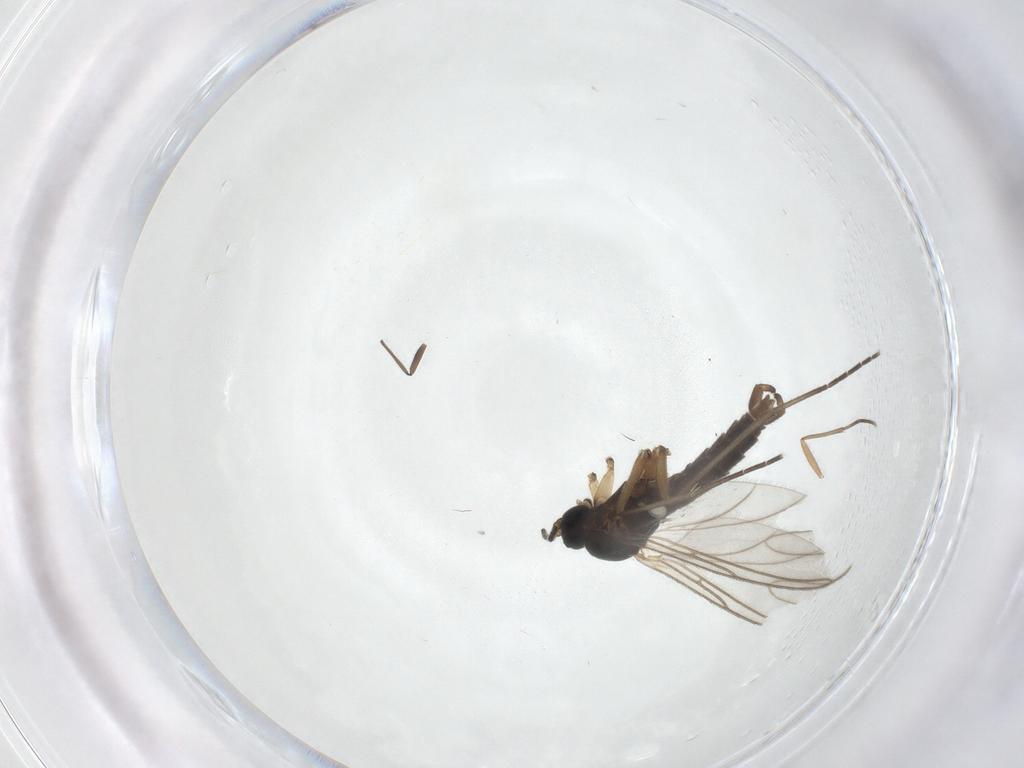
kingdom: Animalia
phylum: Arthropoda
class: Insecta
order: Diptera
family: Sciaridae
